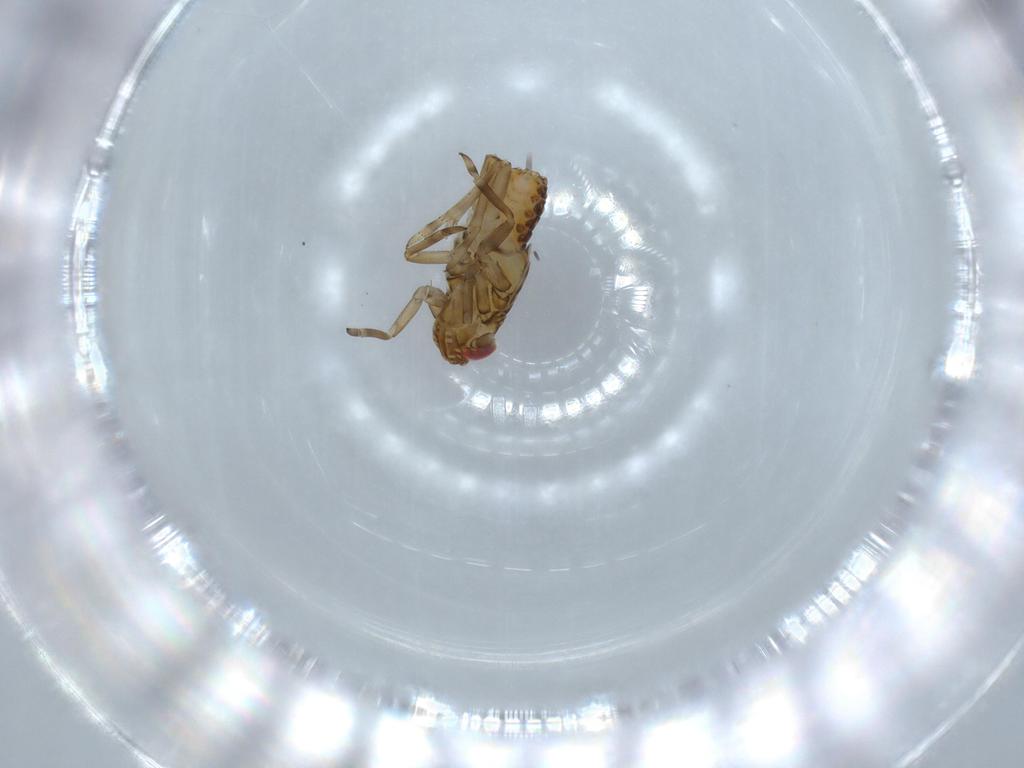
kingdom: Animalia
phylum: Arthropoda
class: Insecta
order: Hemiptera
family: Delphacidae
